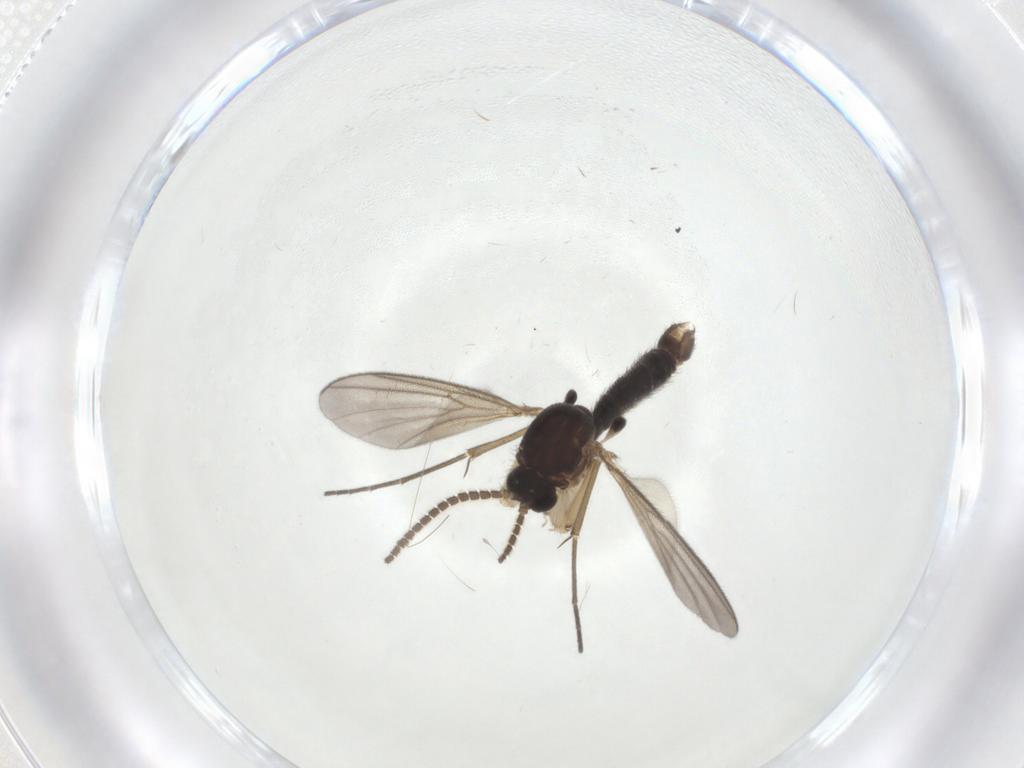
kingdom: Animalia
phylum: Arthropoda
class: Insecta
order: Diptera
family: Mycetophilidae
